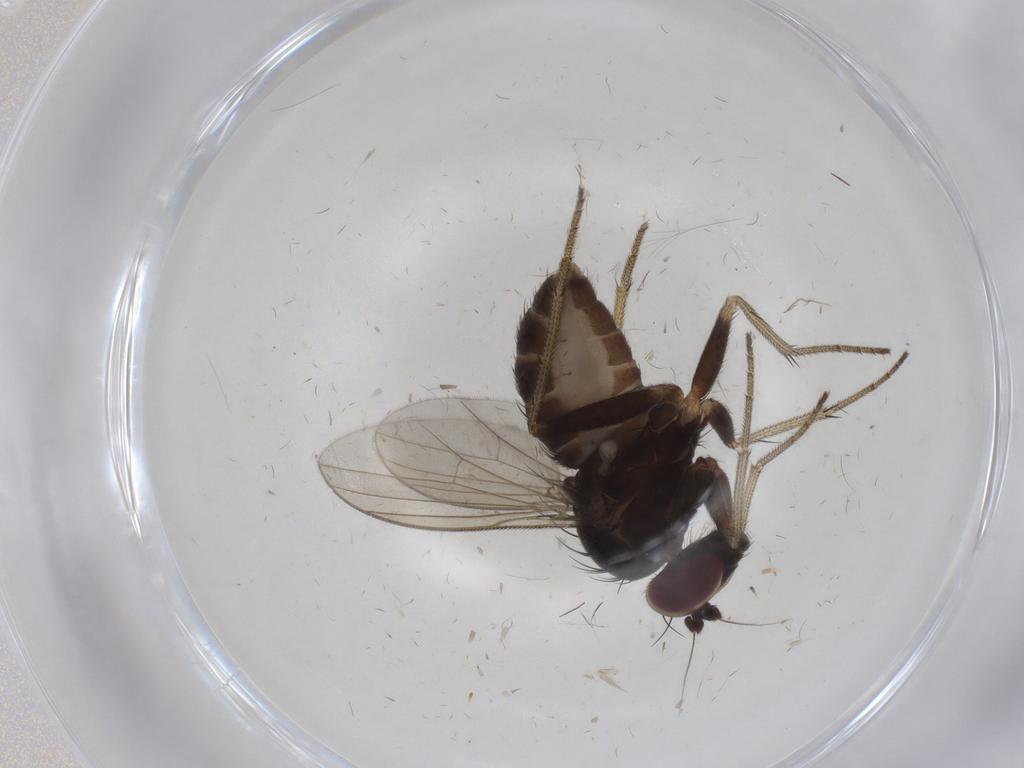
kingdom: Animalia
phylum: Arthropoda
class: Insecta
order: Diptera
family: Dolichopodidae
